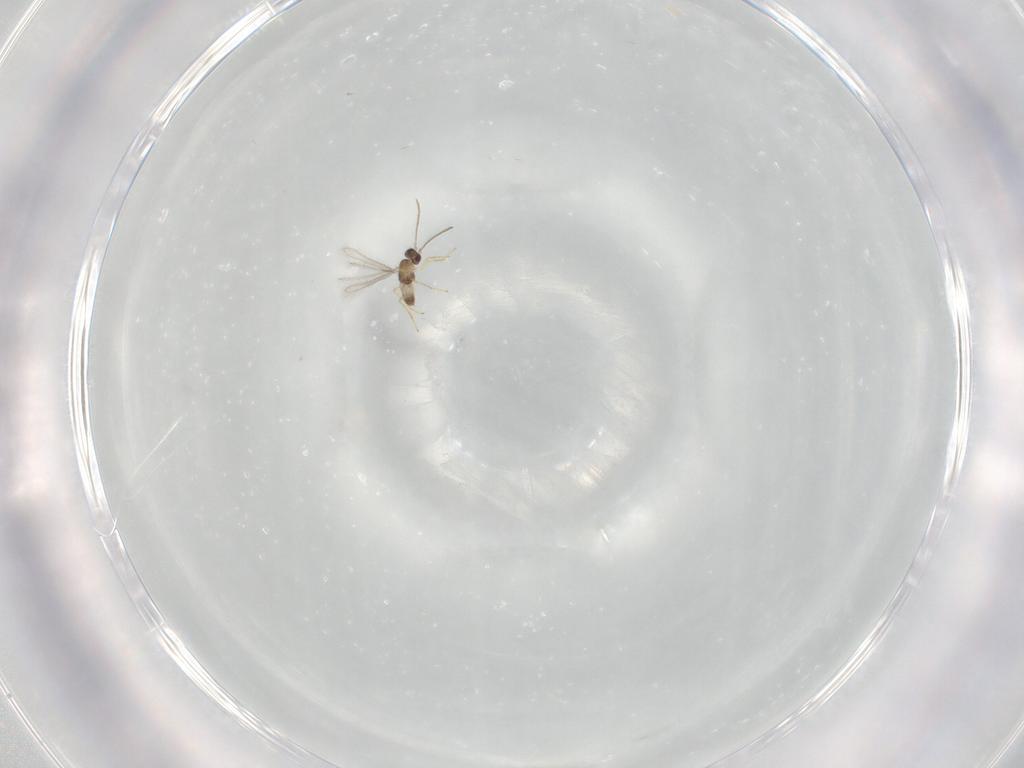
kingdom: Animalia
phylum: Arthropoda
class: Insecta
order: Hymenoptera
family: Mymaridae
